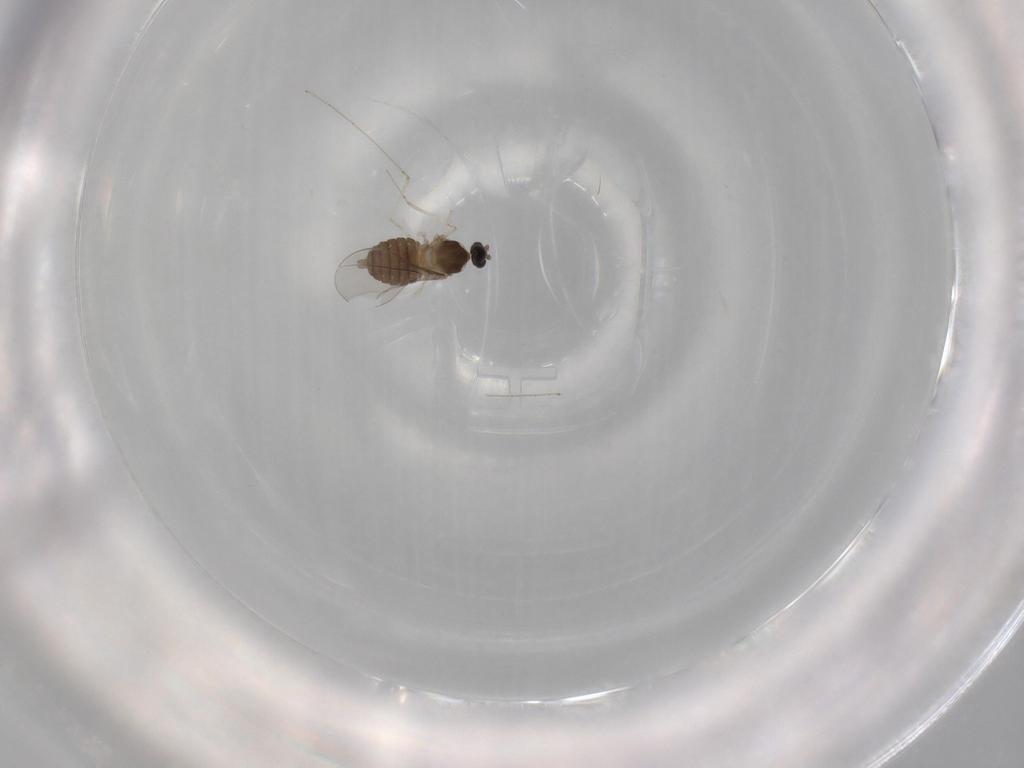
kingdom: Animalia
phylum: Arthropoda
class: Insecta
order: Diptera
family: Cecidomyiidae
